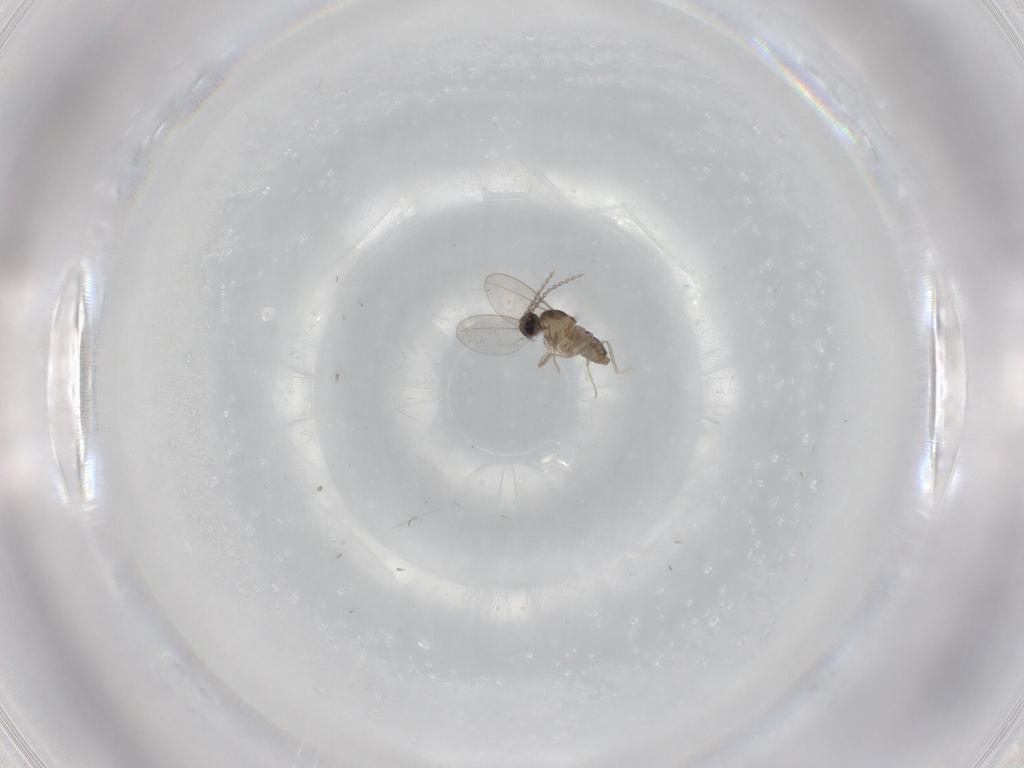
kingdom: Animalia
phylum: Arthropoda
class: Insecta
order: Diptera
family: Cecidomyiidae
